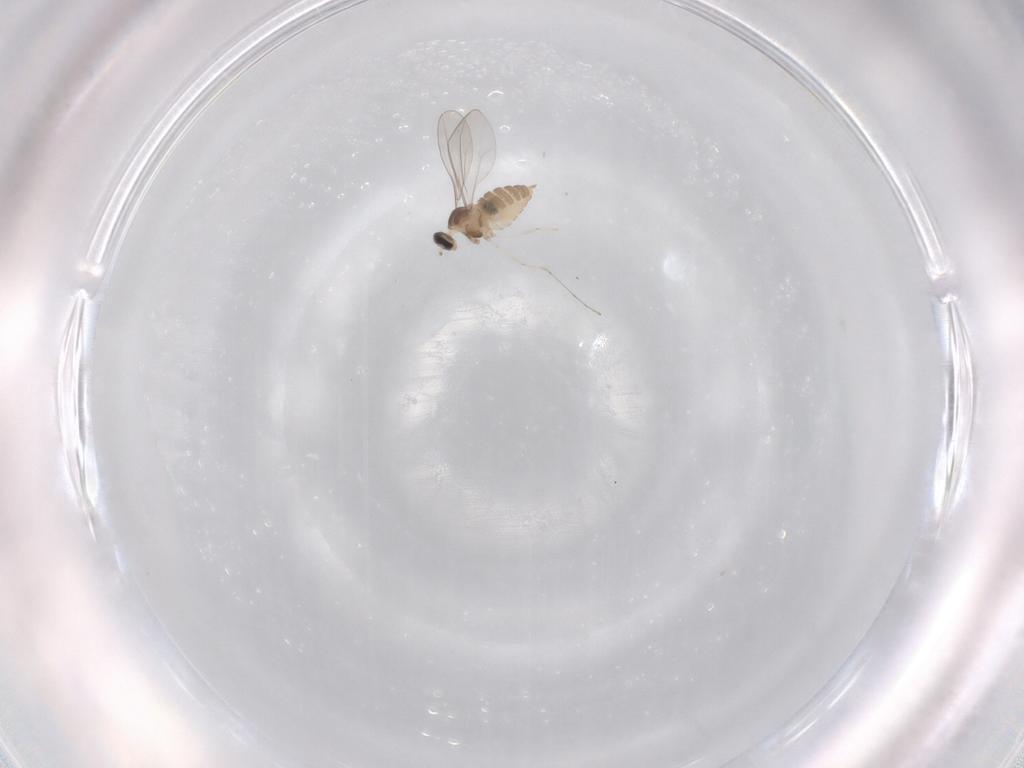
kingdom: Animalia
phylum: Arthropoda
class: Insecta
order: Diptera
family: Cecidomyiidae
